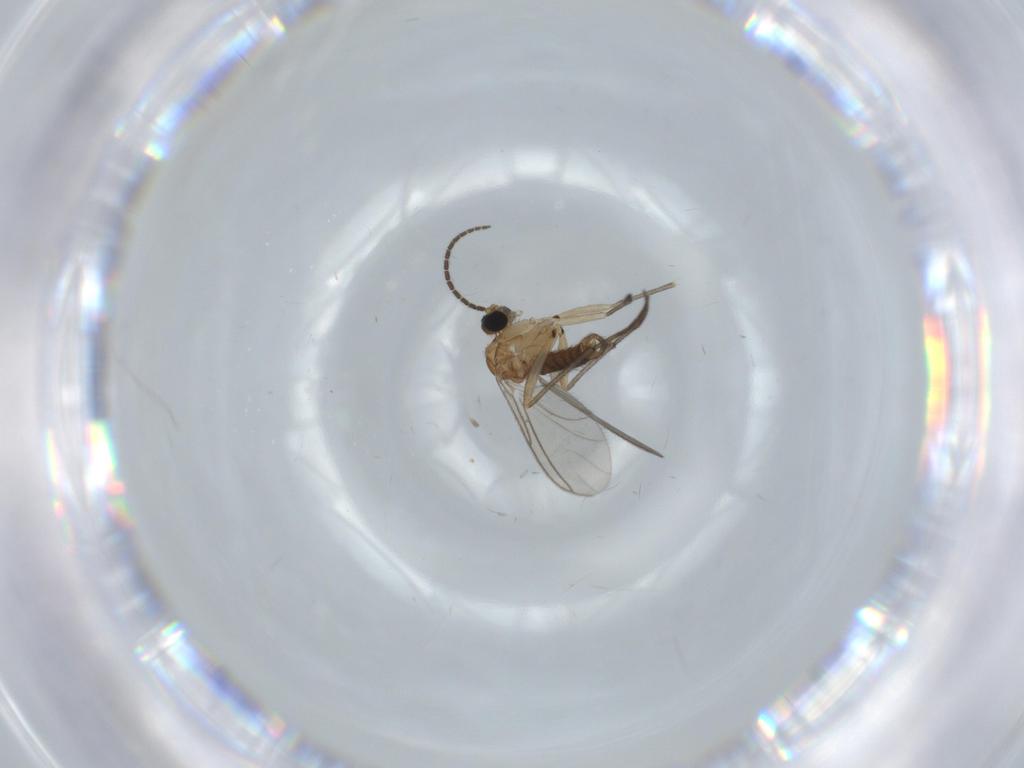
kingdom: Animalia
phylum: Arthropoda
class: Insecta
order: Diptera
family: Sciaridae
